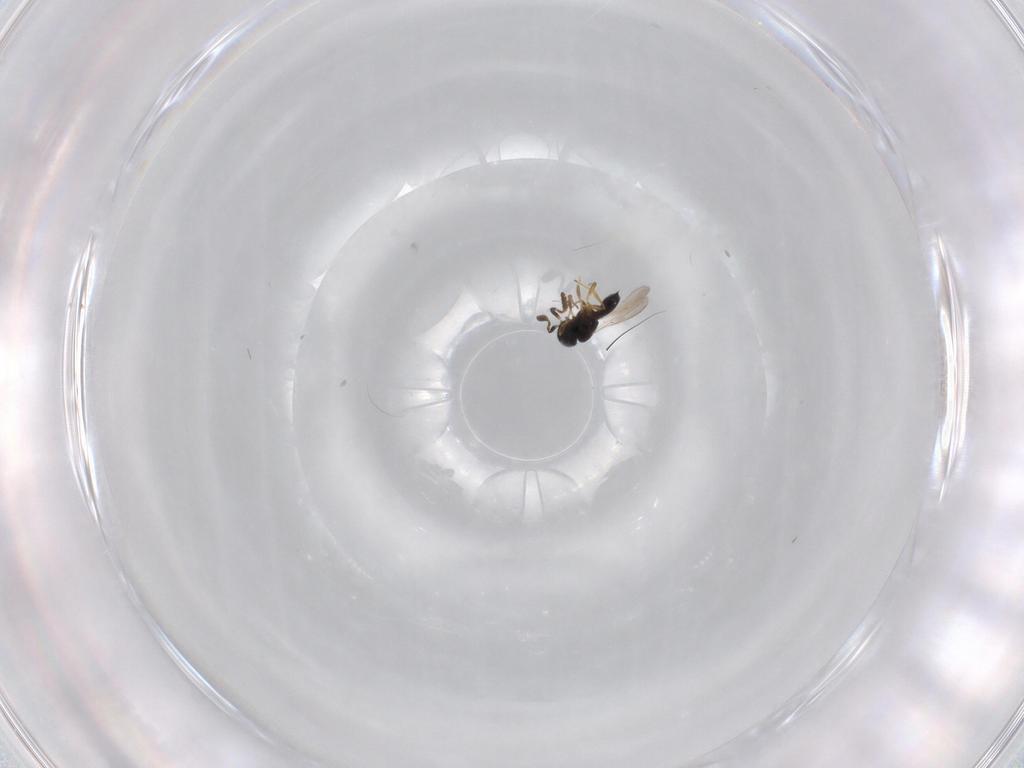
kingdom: Animalia
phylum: Arthropoda
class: Insecta
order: Hymenoptera
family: Scelionidae
